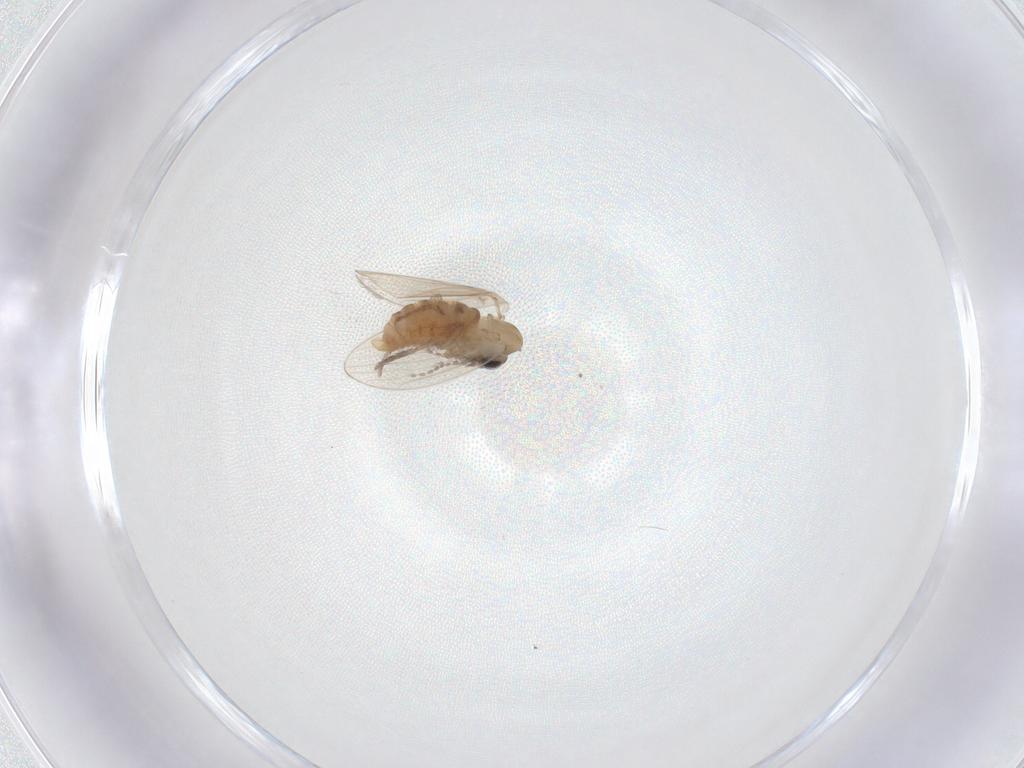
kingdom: Animalia
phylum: Arthropoda
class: Insecta
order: Diptera
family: Psychodidae
